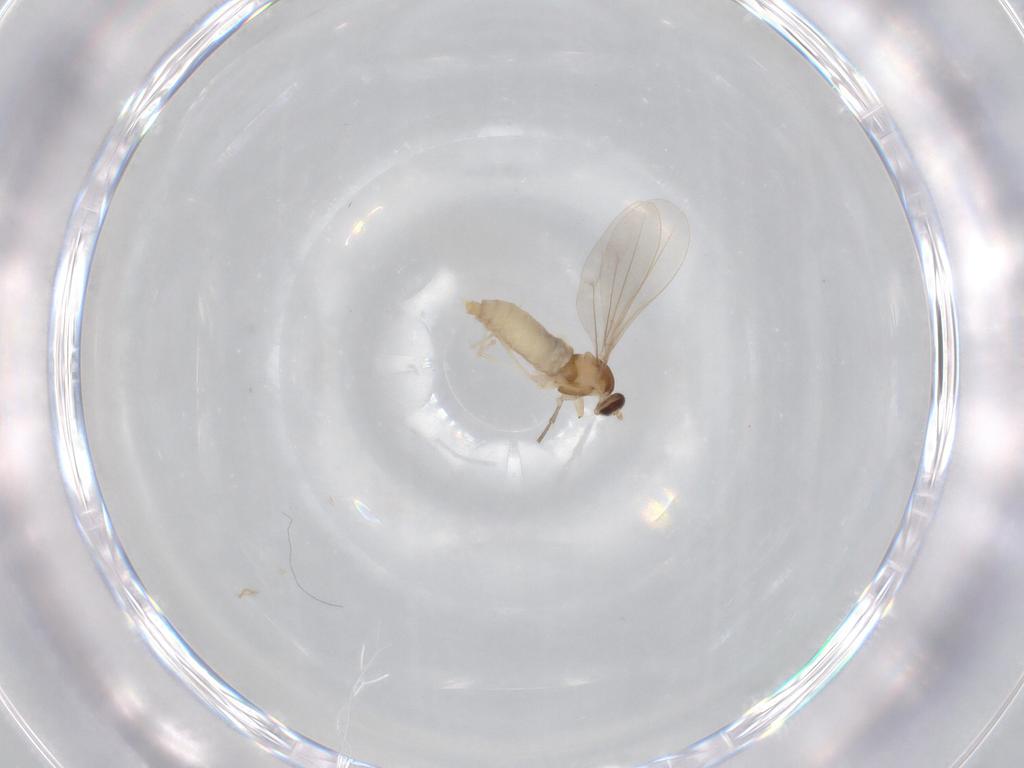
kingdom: Animalia
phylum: Arthropoda
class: Insecta
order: Diptera
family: Cecidomyiidae
